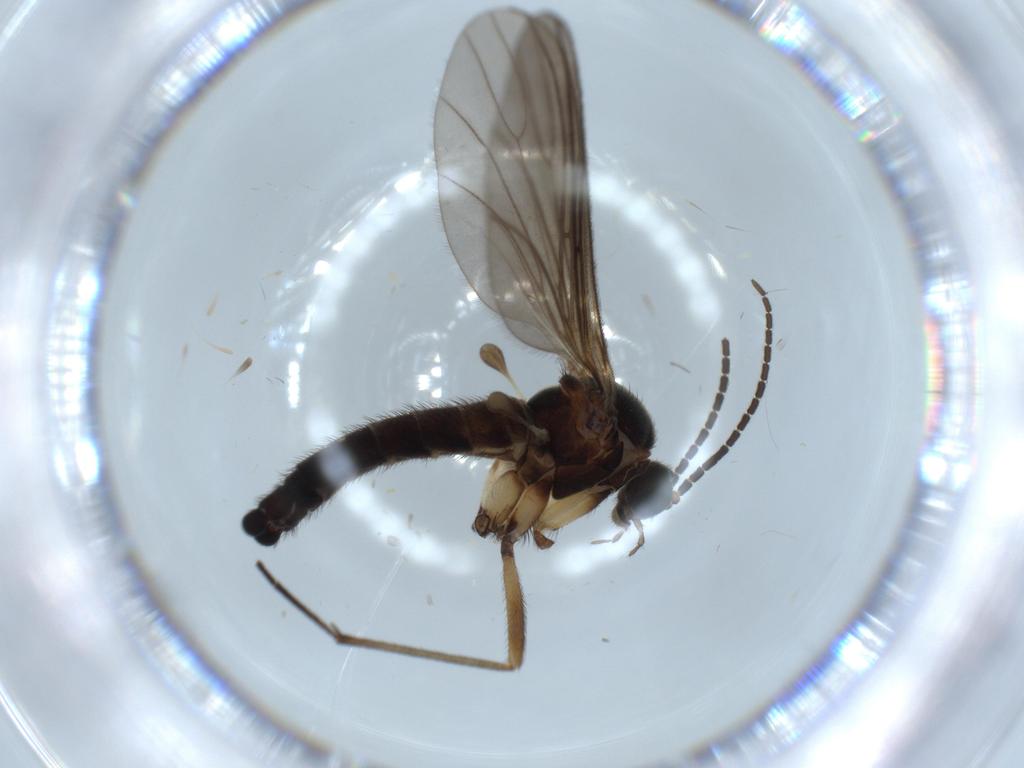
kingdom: Animalia
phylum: Arthropoda
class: Insecta
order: Diptera
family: Sciaridae
